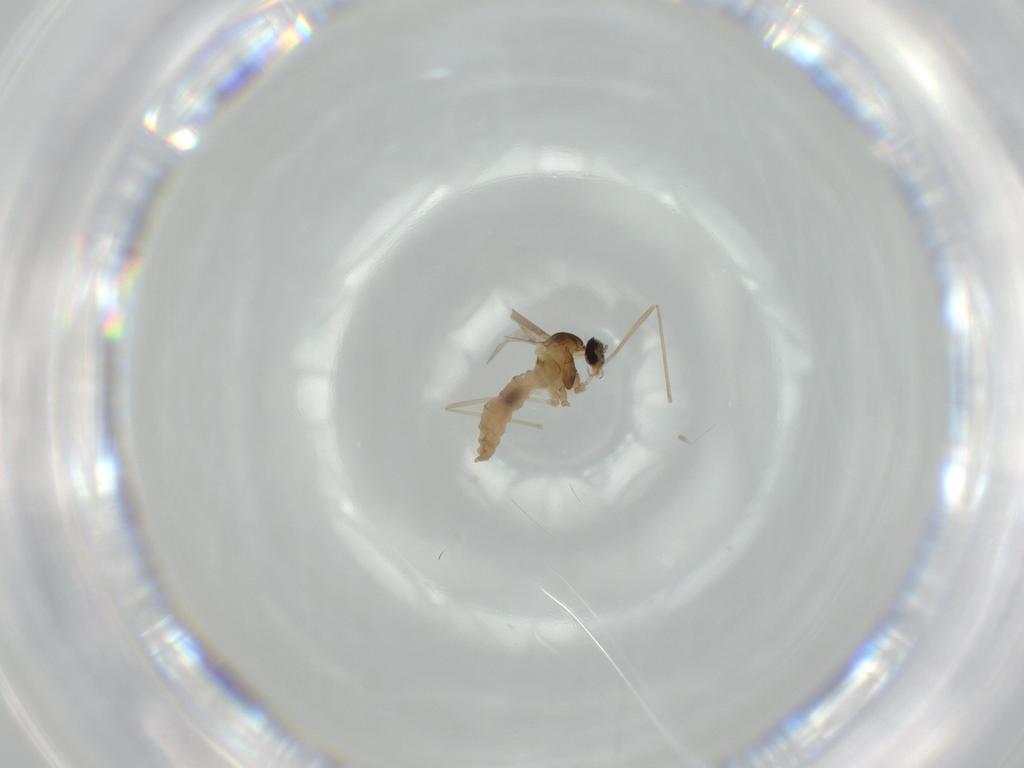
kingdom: Animalia
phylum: Arthropoda
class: Insecta
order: Diptera
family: Cecidomyiidae
